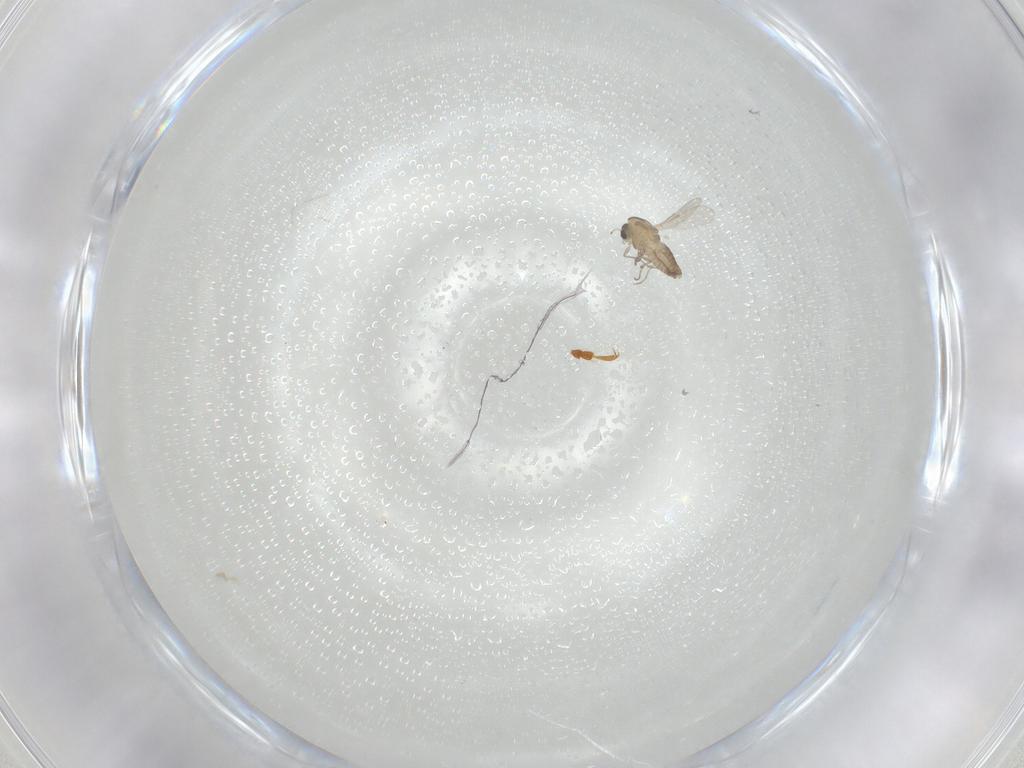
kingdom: Animalia
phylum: Arthropoda
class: Insecta
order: Diptera
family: Chironomidae
